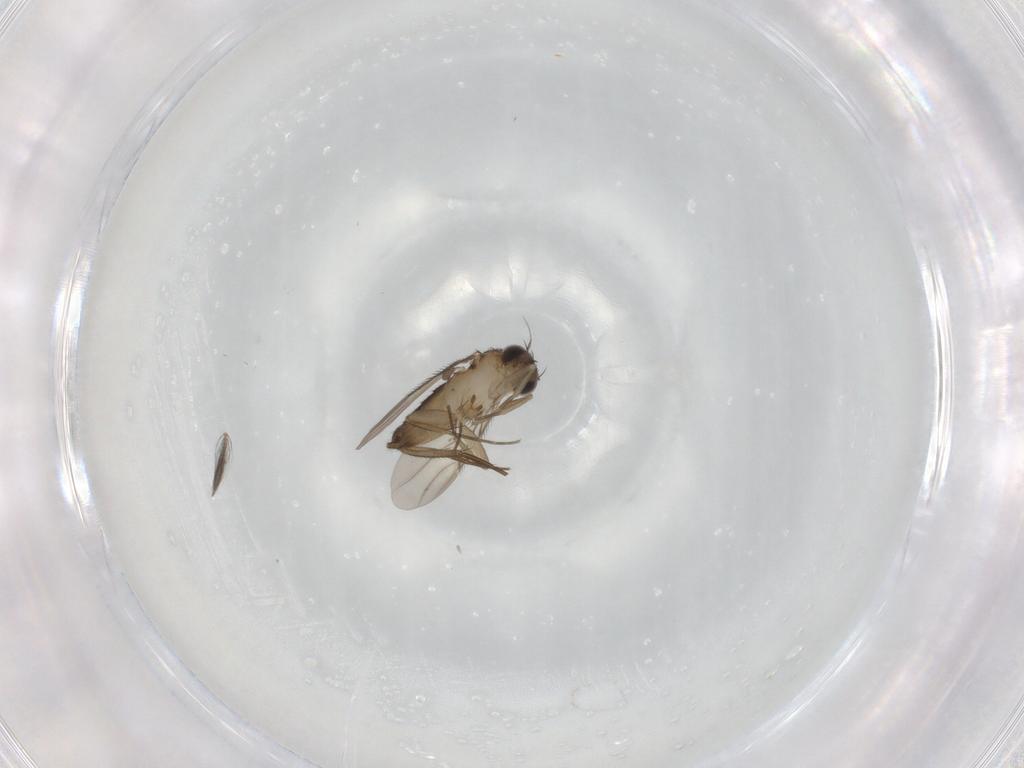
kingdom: Animalia
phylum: Arthropoda
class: Insecta
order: Diptera
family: Phoridae
